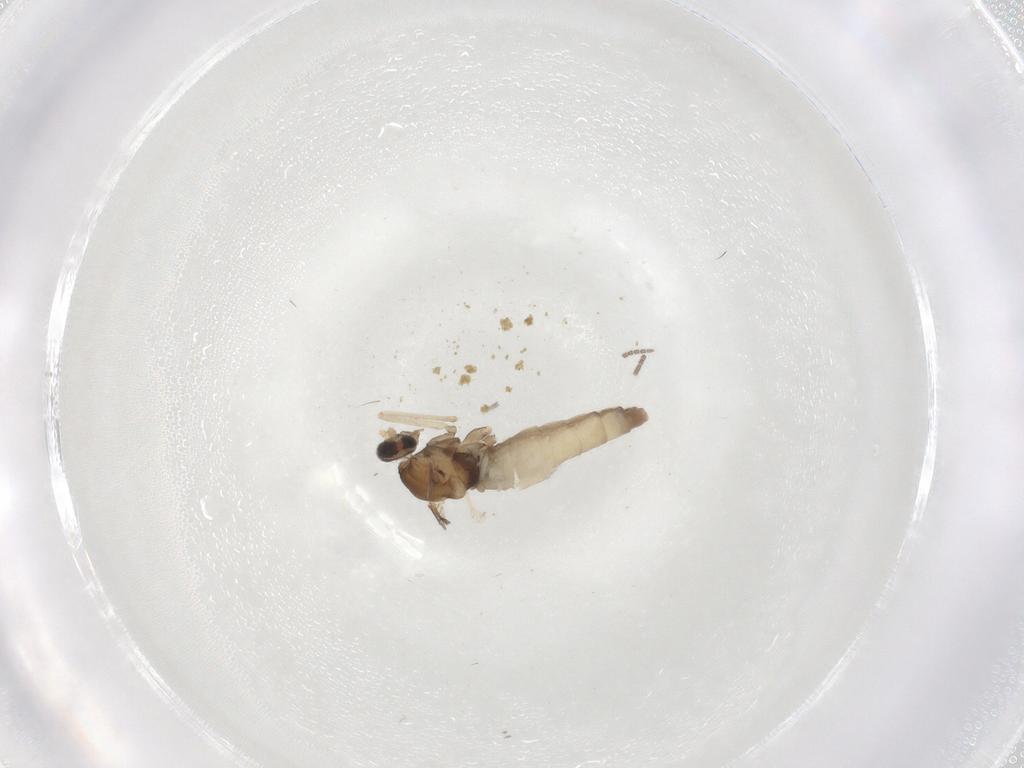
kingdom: Animalia
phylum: Arthropoda
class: Insecta
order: Diptera
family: Cecidomyiidae
